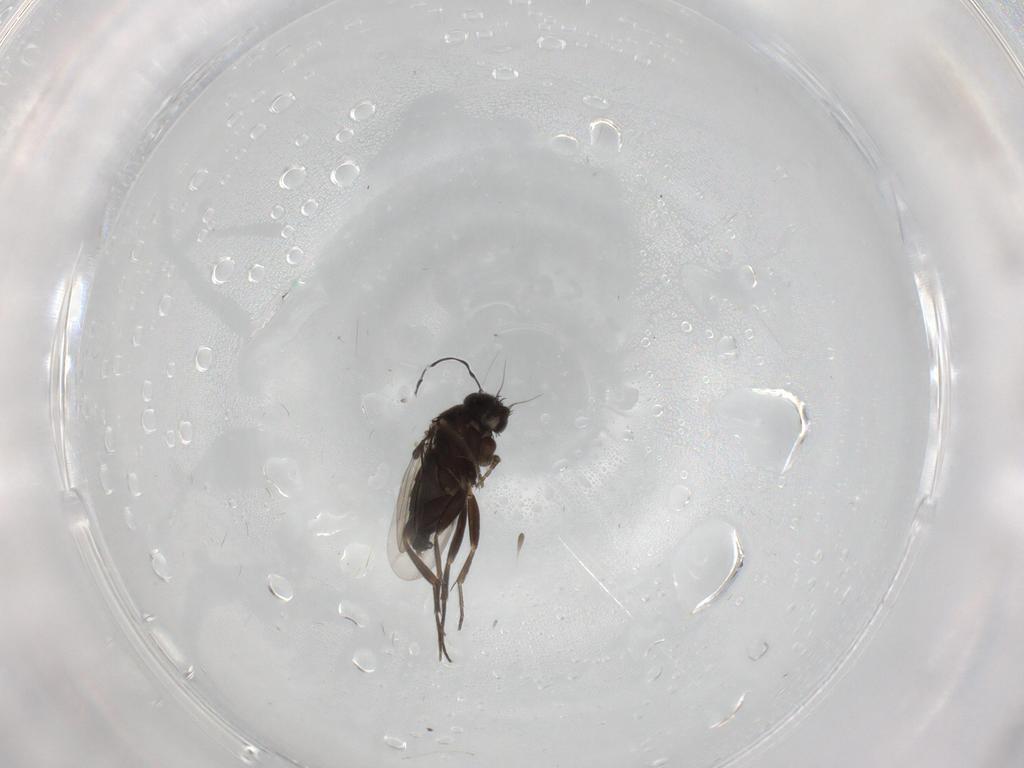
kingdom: Animalia
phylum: Arthropoda
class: Insecta
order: Diptera
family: Phoridae
